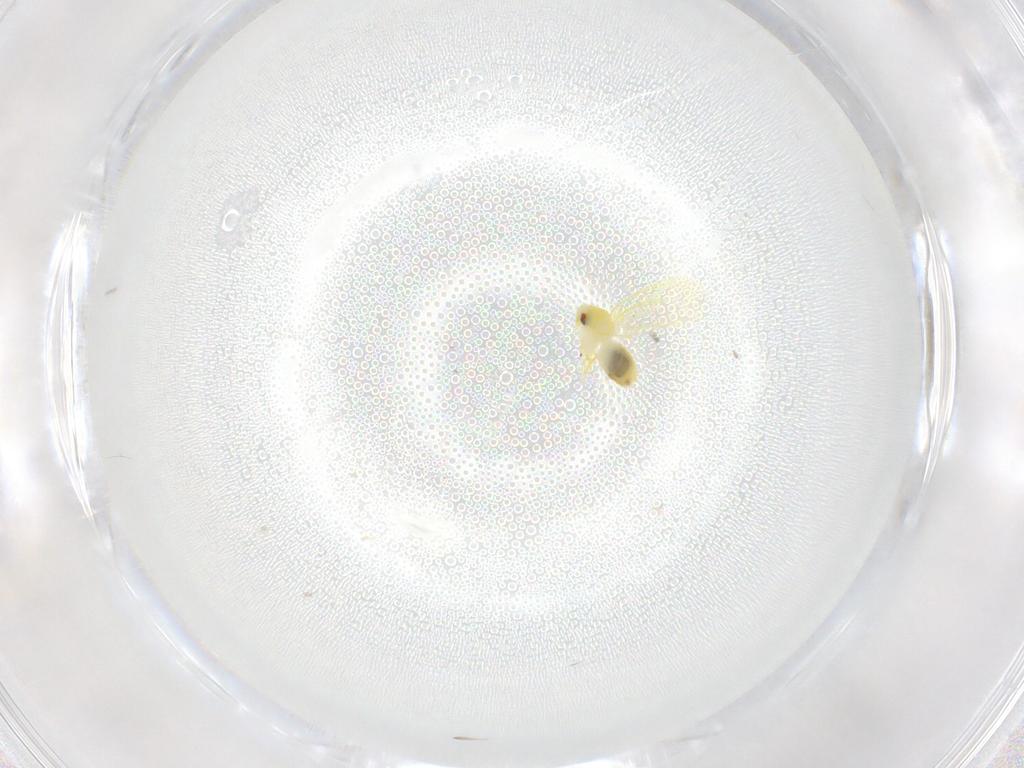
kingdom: Animalia
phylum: Arthropoda
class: Insecta
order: Hemiptera
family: Aleyrodidae
